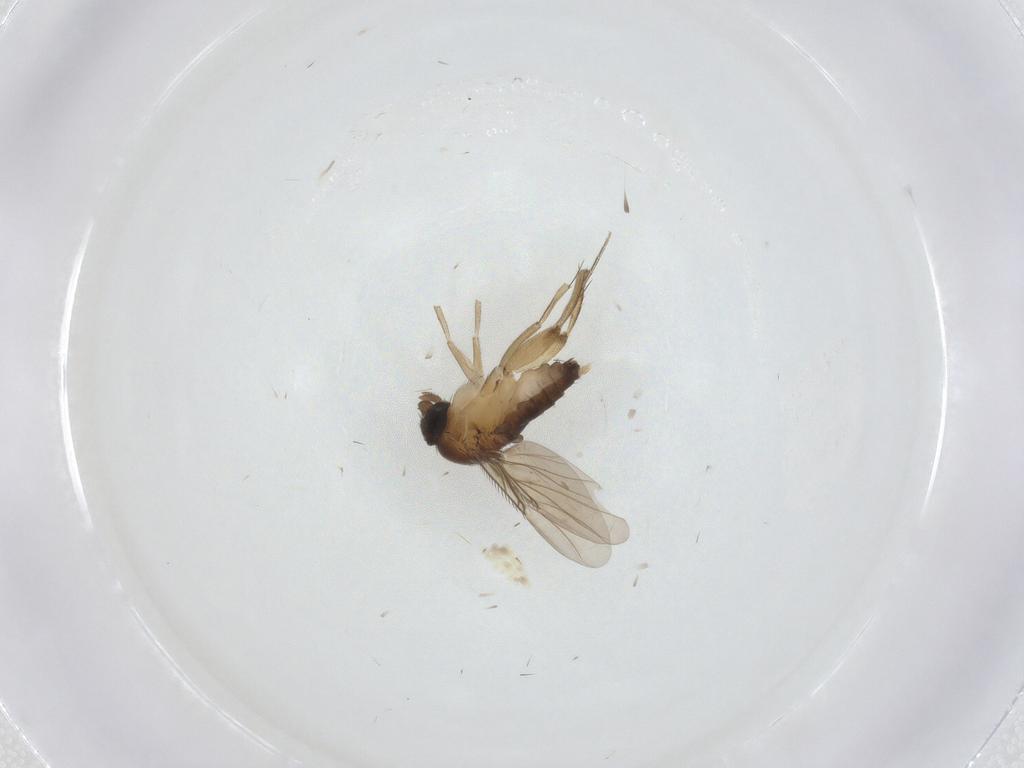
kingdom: Animalia
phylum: Arthropoda
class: Insecta
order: Diptera
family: Phoridae
